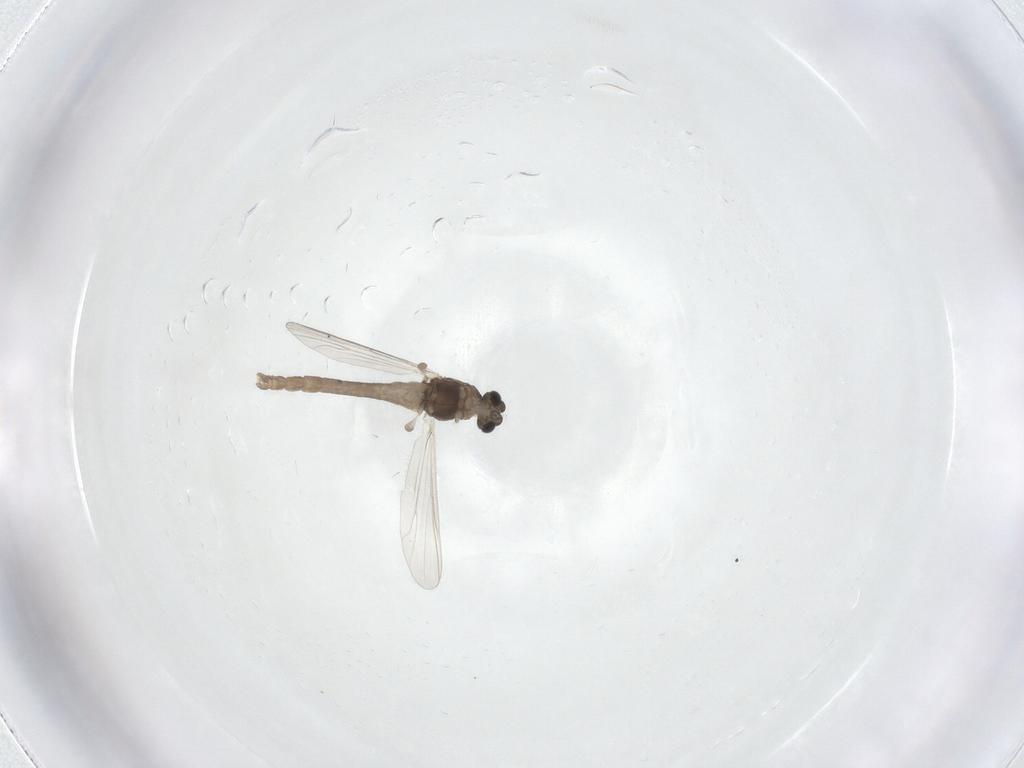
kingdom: Animalia
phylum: Arthropoda
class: Insecta
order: Diptera
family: Chironomidae
